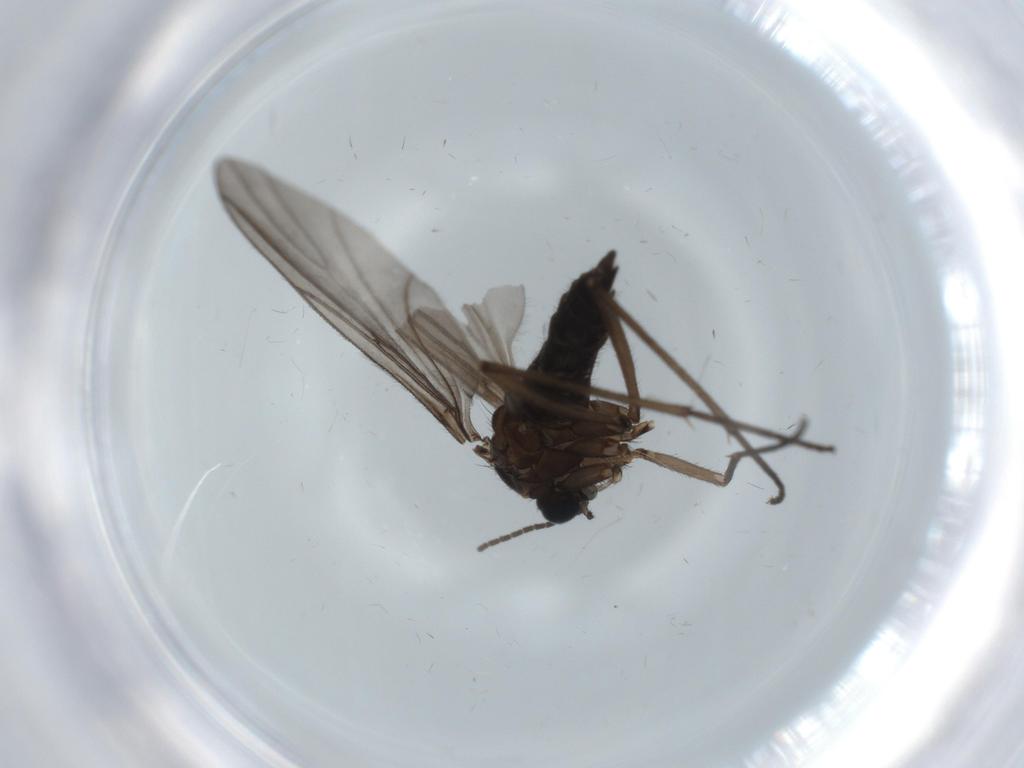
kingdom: Animalia
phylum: Arthropoda
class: Insecta
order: Diptera
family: Sciaridae
